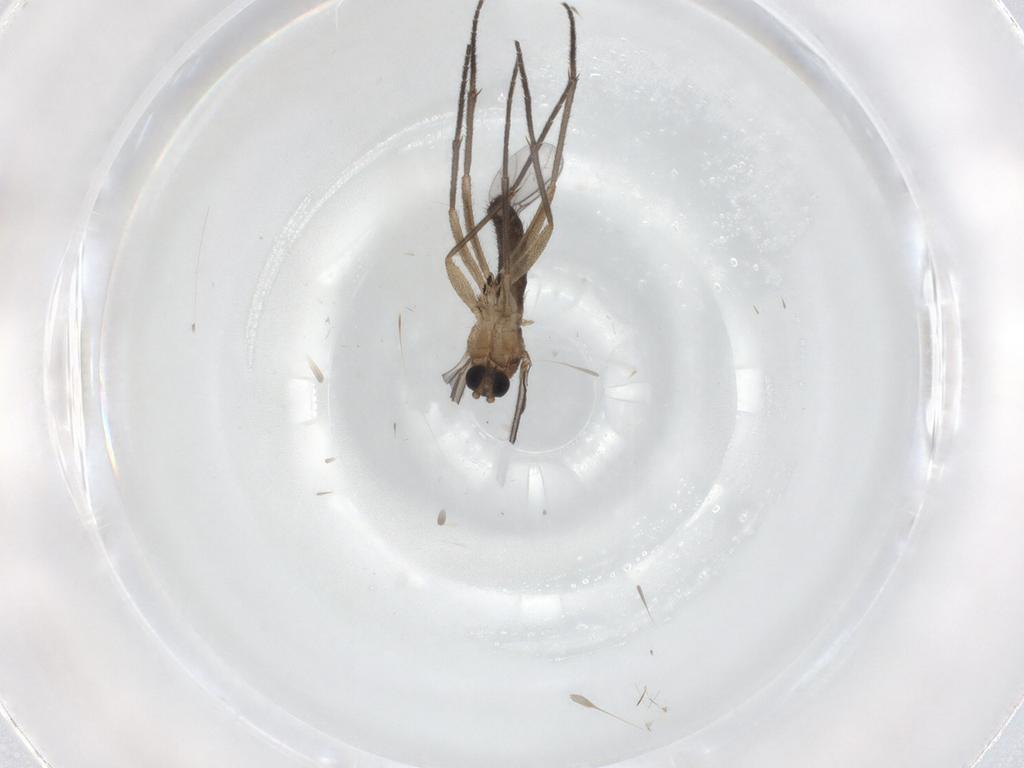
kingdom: Animalia
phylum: Arthropoda
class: Insecta
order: Diptera
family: Sciaridae
